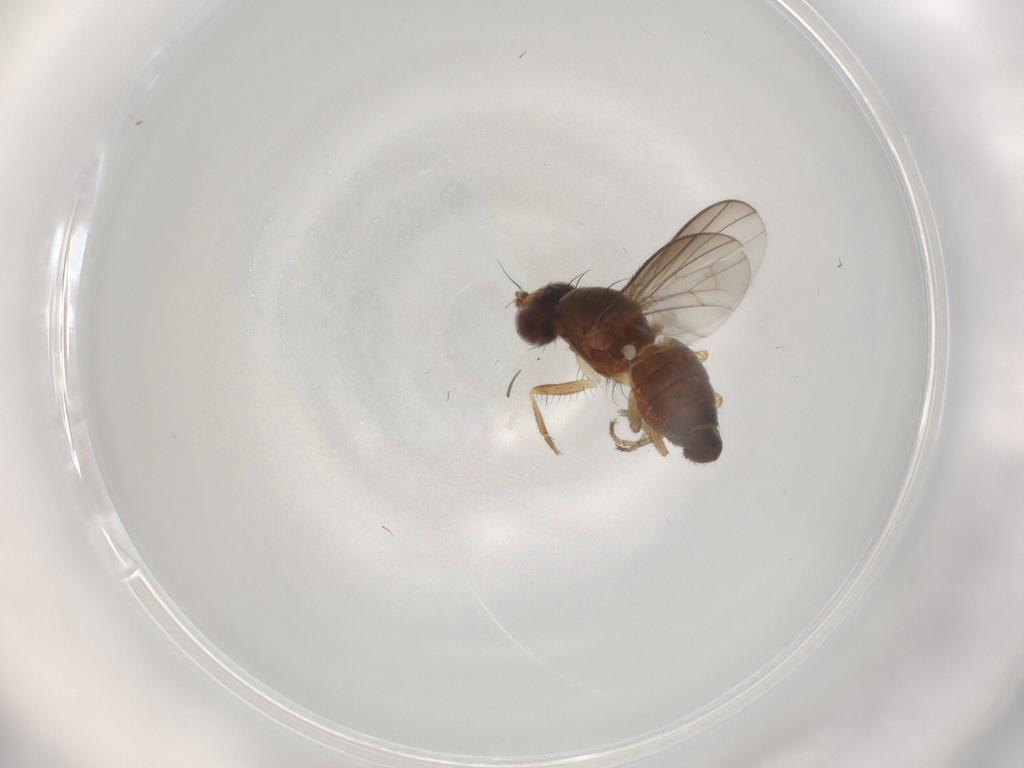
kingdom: Animalia
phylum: Arthropoda
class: Insecta
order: Diptera
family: Heleomyzidae
